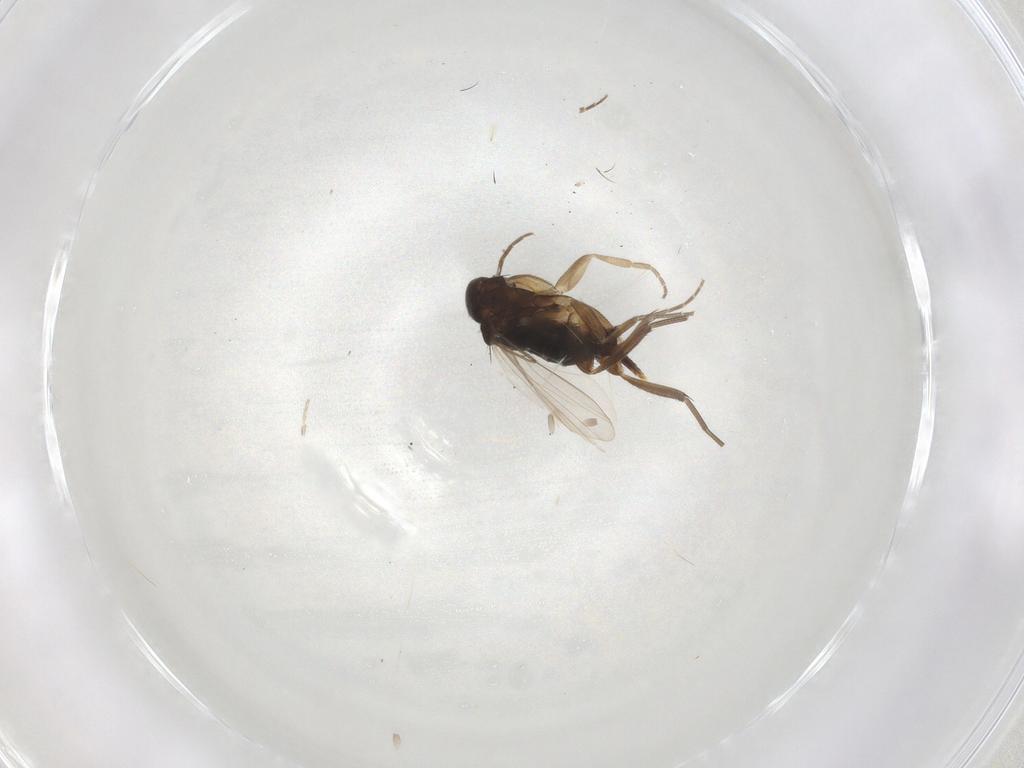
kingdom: Animalia
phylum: Arthropoda
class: Insecta
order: Diptera
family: Phoridae
